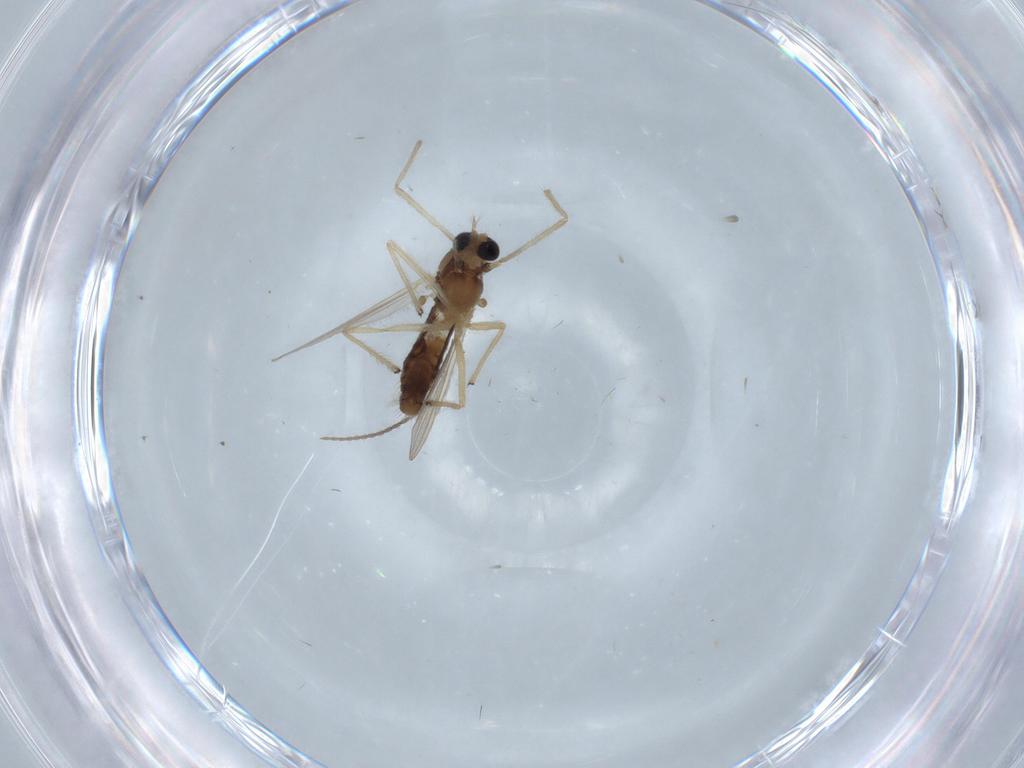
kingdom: Animalia
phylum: Arthropoda
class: Insecta
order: Diptera
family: Chironomidae
